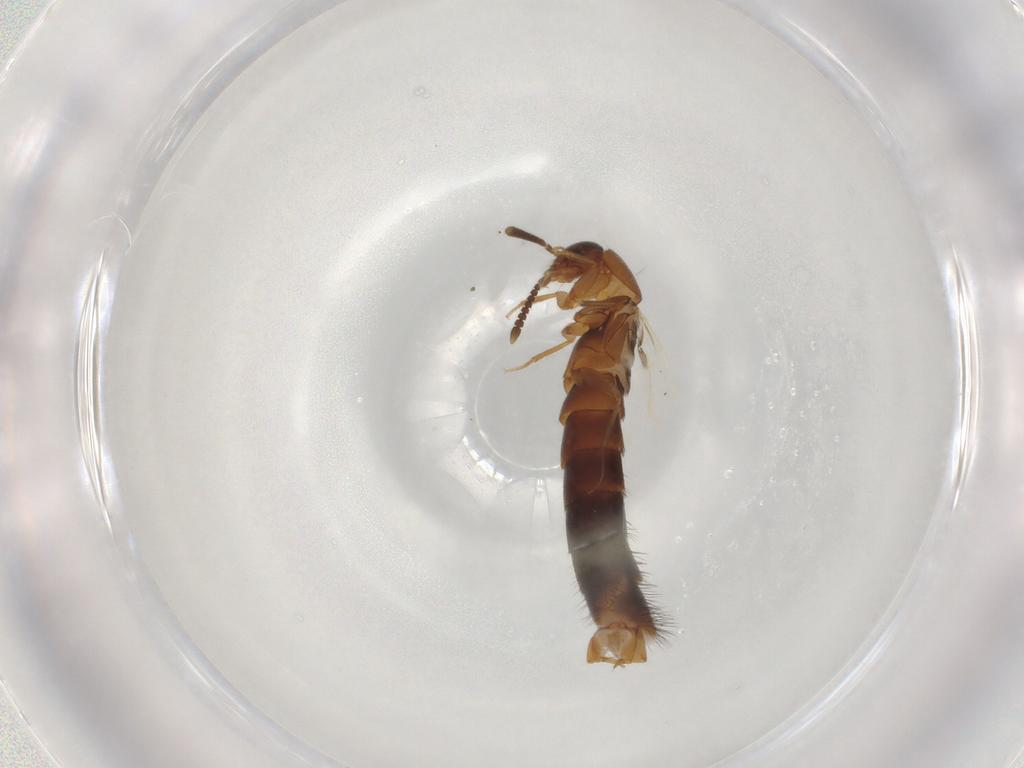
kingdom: Animalia
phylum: Arthropoda
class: Insecta
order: Coleoptera
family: Staphylinidae
